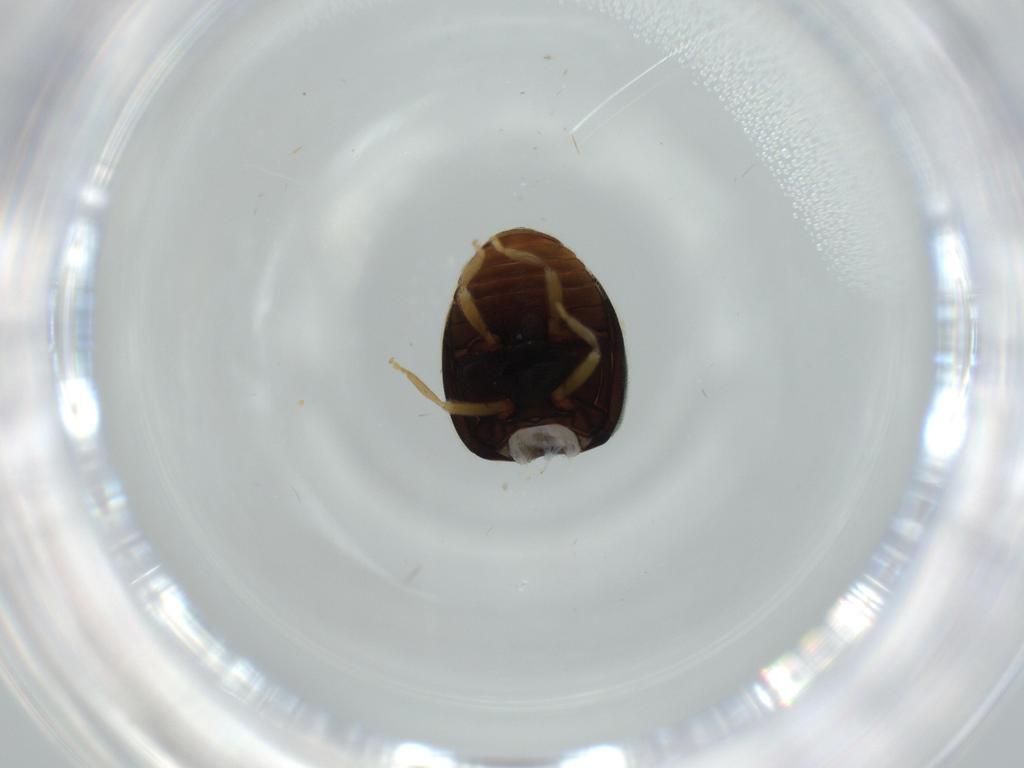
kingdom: Animalia
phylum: Arthropoda
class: Insecta
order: Coleoptera
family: Coccinellidae
